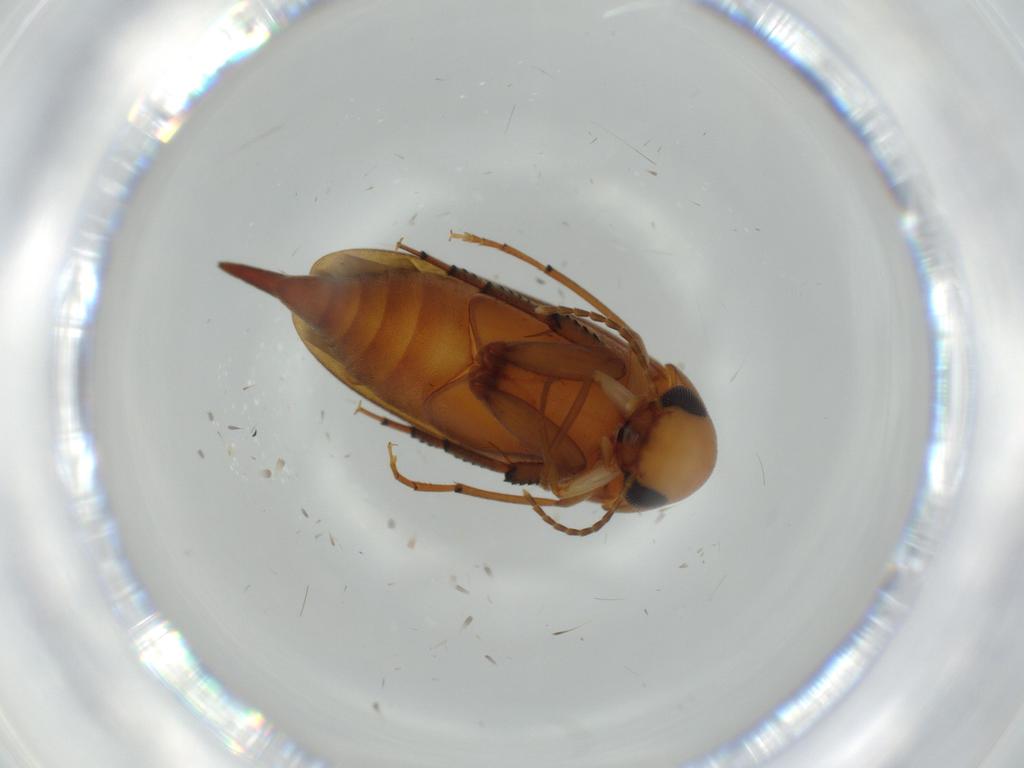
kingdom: Animalia
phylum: Arthropoda
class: Insecta
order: Coleoptera
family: Mordellidae
